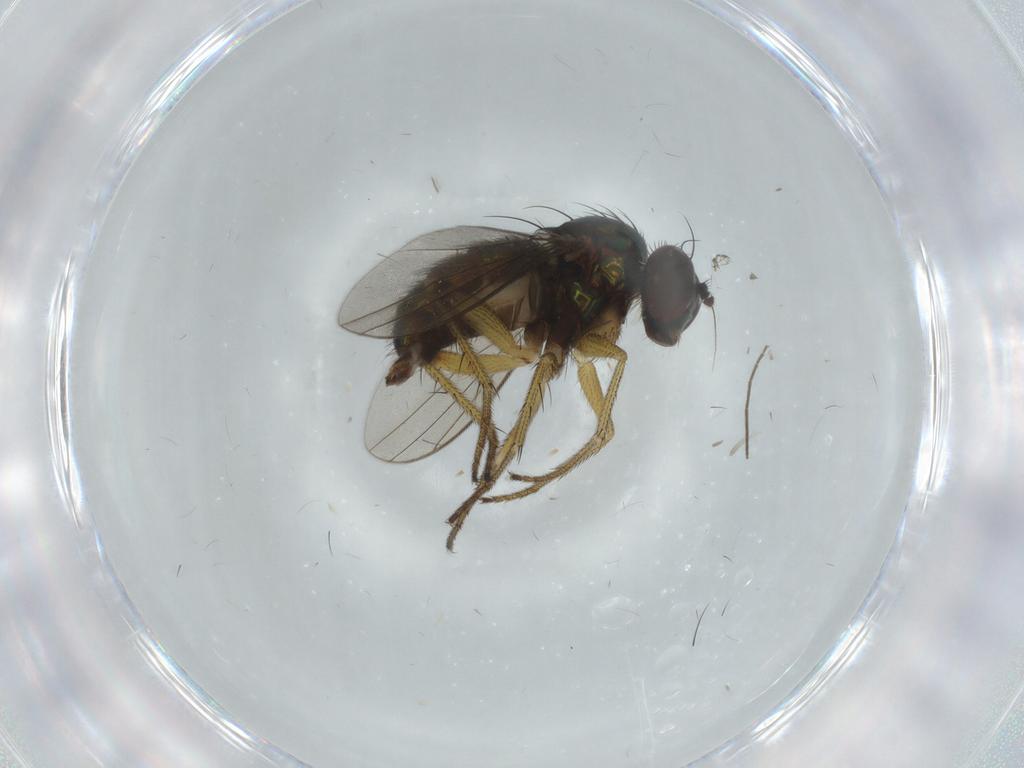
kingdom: Animalia
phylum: Arthropoda
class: Insecta
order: Diptera
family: Dolichopodidae
